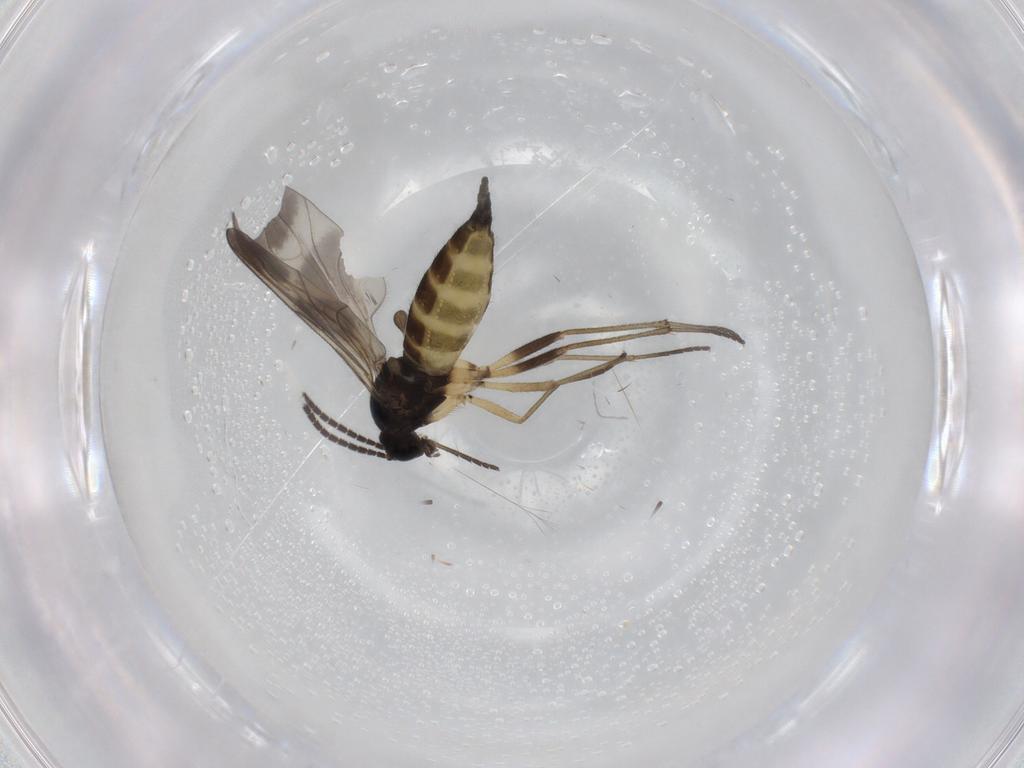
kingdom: Animalia
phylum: Arthropoda
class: Insecta
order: Diptera
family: Sciaridae
